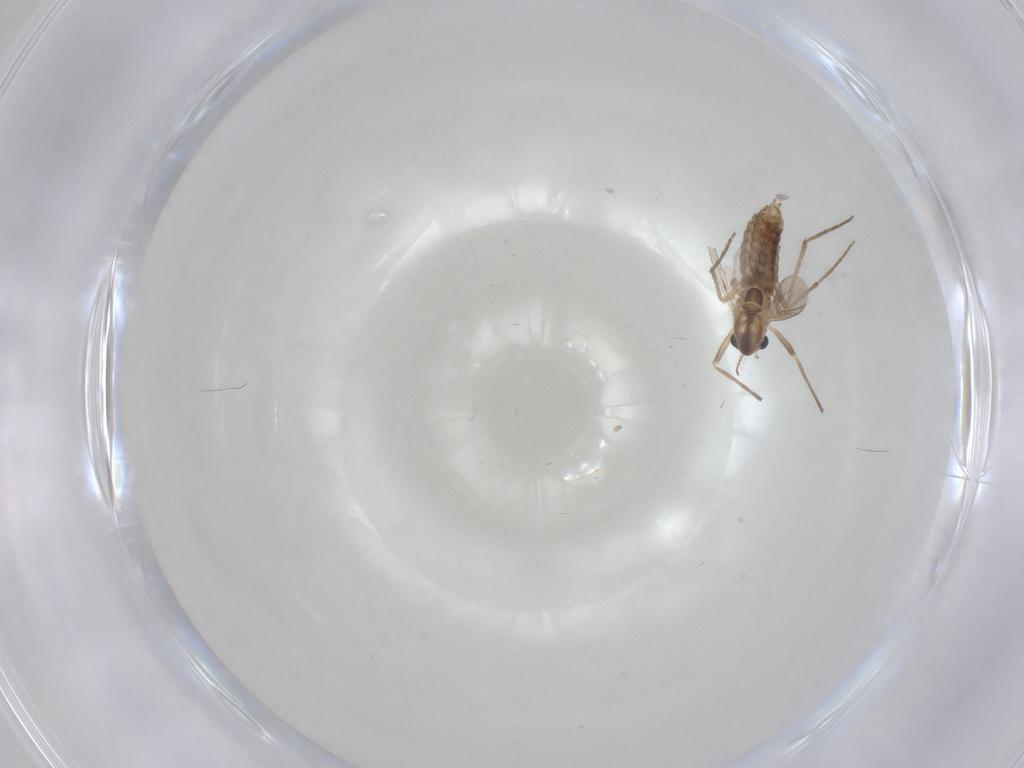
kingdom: Animalia
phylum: Arthropoda
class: Insecta
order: Diptera
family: Chironomidae
